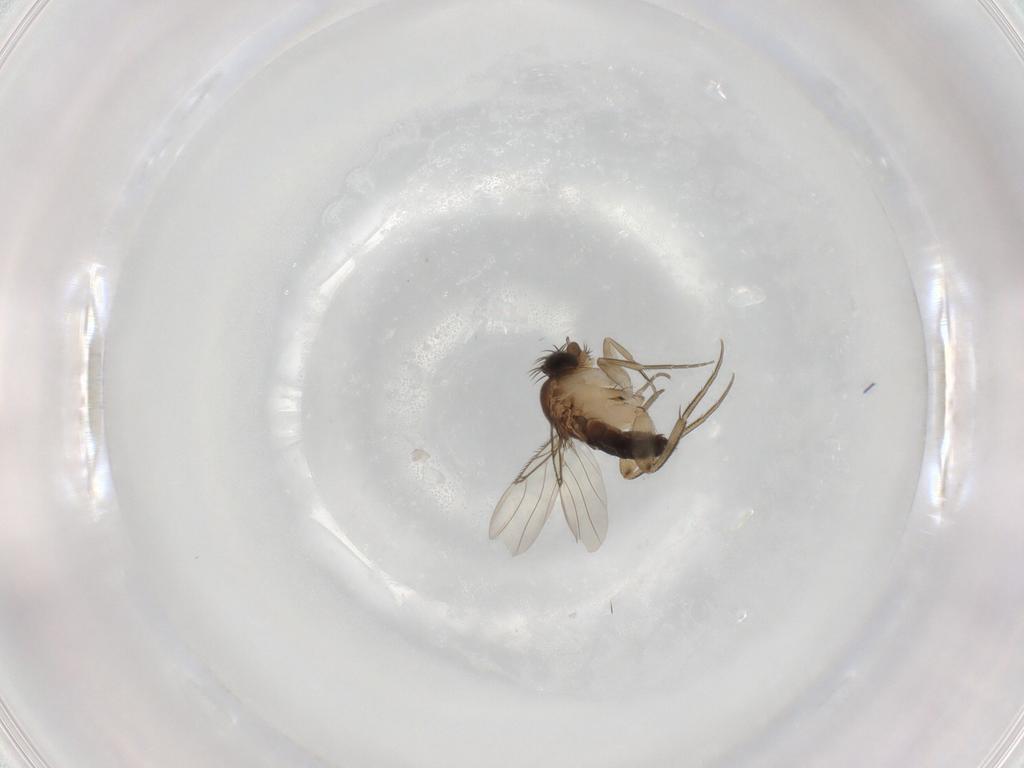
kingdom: Animalia
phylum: Arthropoda
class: Insecta
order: Diptera
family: Phoridae
